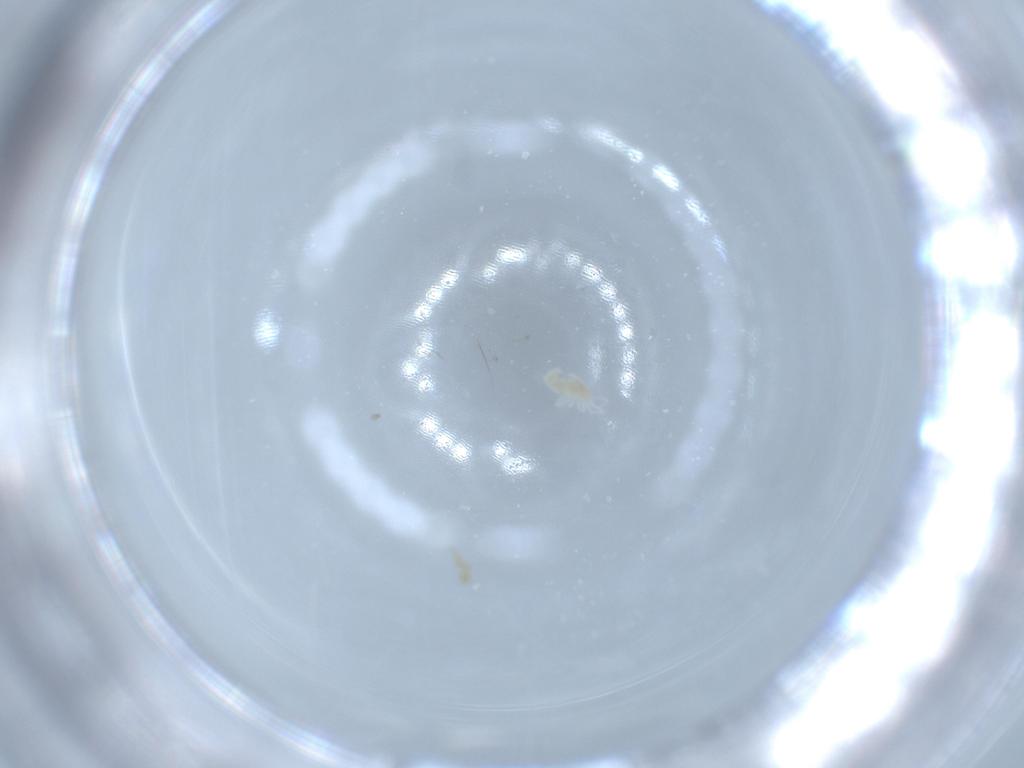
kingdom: Animalia
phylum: Arthropoda
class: Arachnida
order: Trombidiformes
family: Eupodidae
